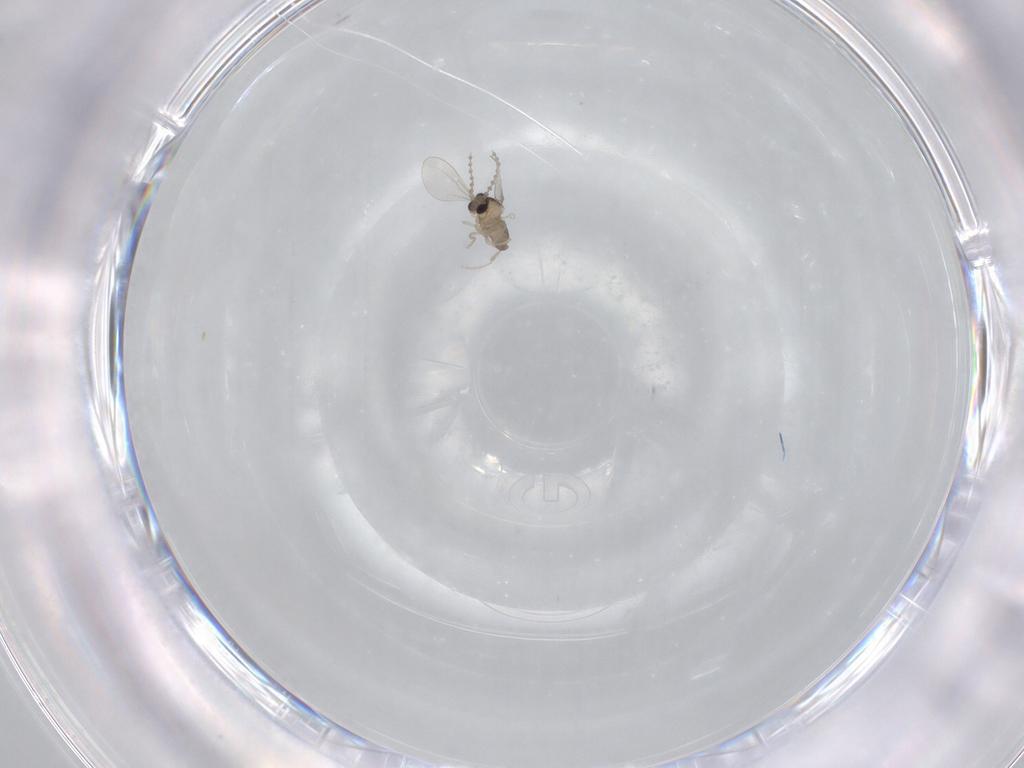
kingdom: Animalia
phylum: Arthropoda
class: Insecta
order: Diptera
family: Cecidomyiidae
